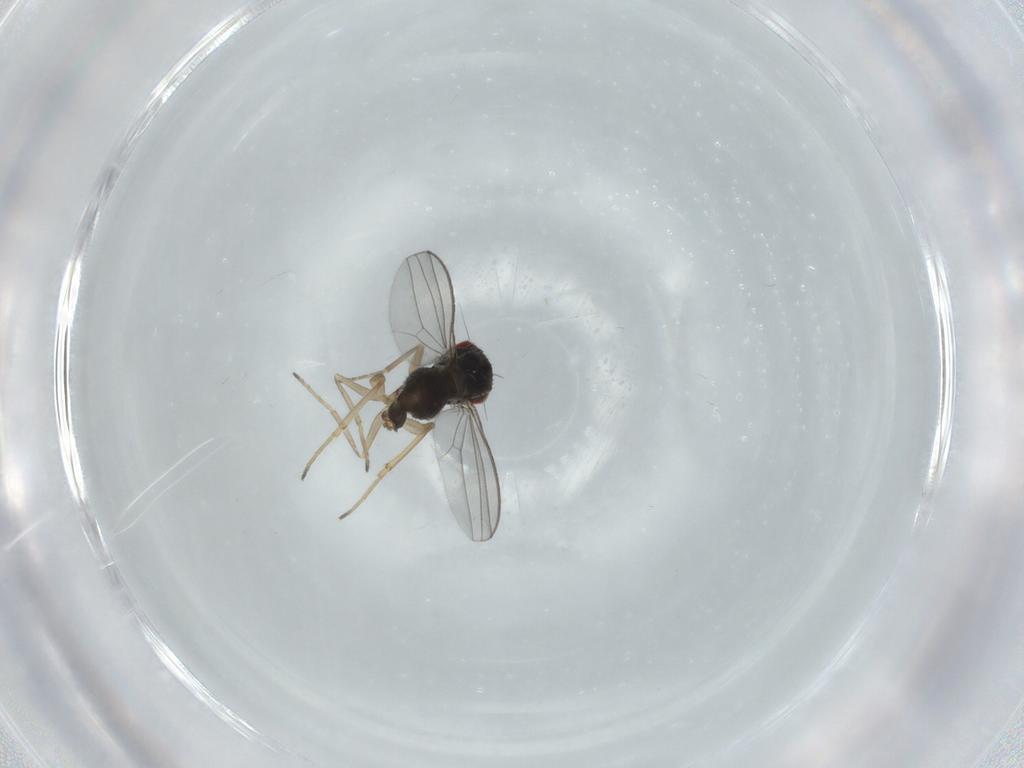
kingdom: Animalia
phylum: Arthropoda
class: Insecta
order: Diptera
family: Dolichopodidae
